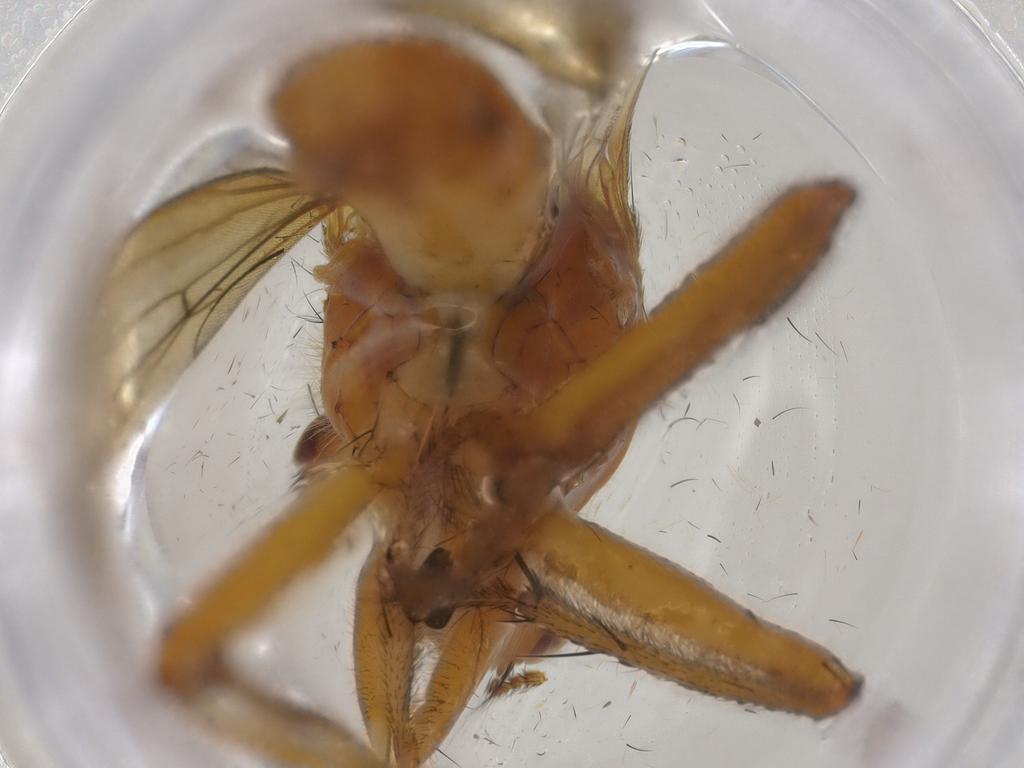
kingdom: Animalia
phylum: Arthropoda
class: Insecta
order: Diptera
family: Scathophagidae
